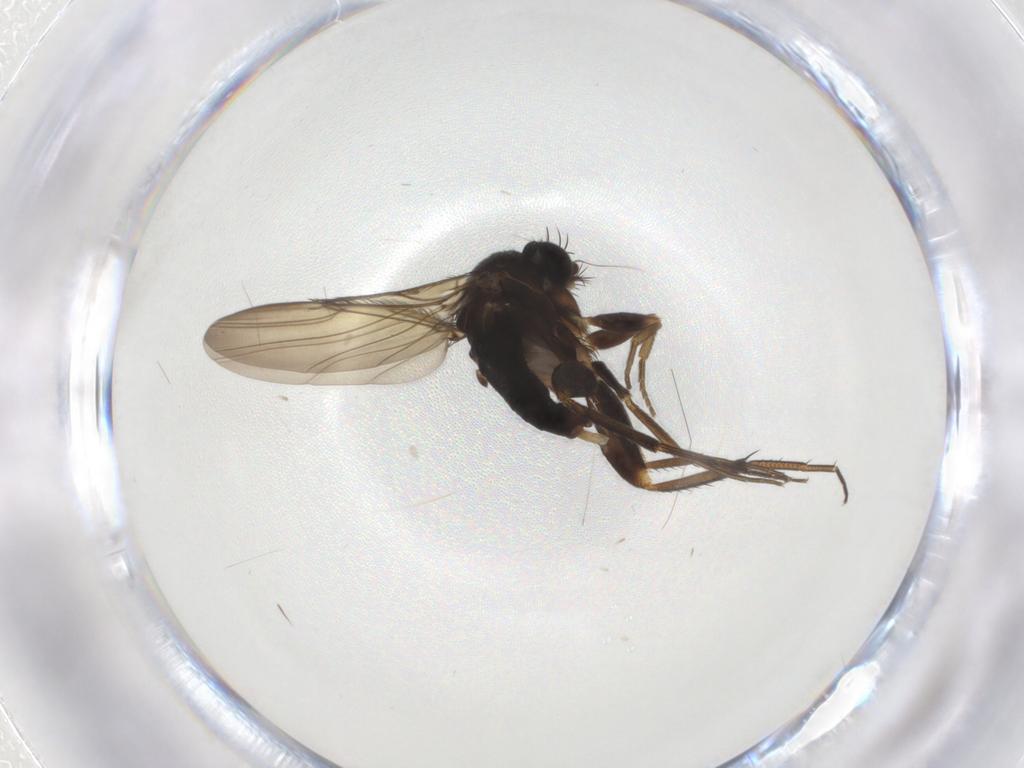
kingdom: Animalia
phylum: Arthropoda
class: Insecta
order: Diptera
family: Phoridae
